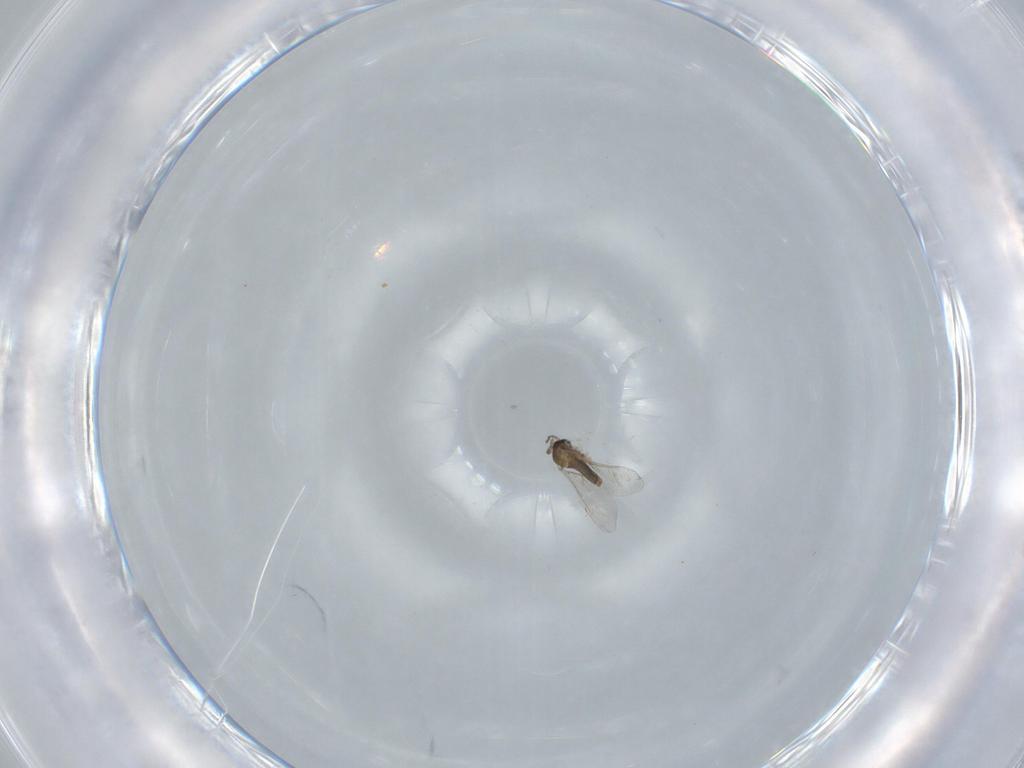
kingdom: Animalia
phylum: Arthropoda
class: Insecta
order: Diptera
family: Cecidomyiidae
